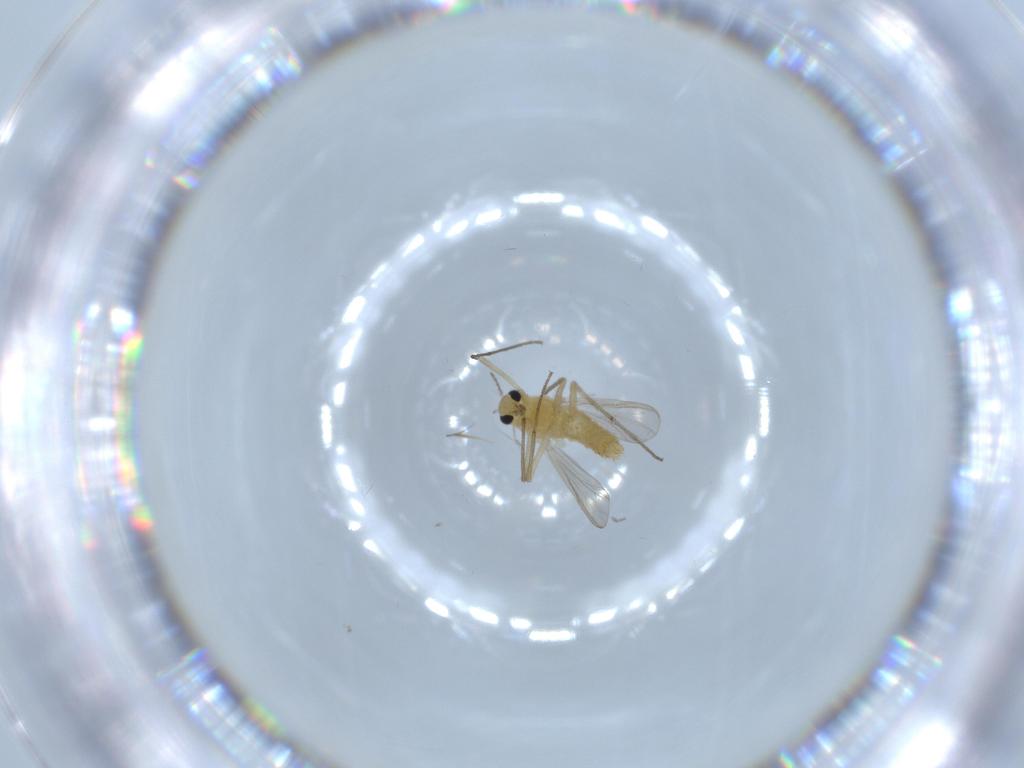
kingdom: Animalia
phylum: Arthropoda
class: Insecta
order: Diptera
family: Chironomidae
